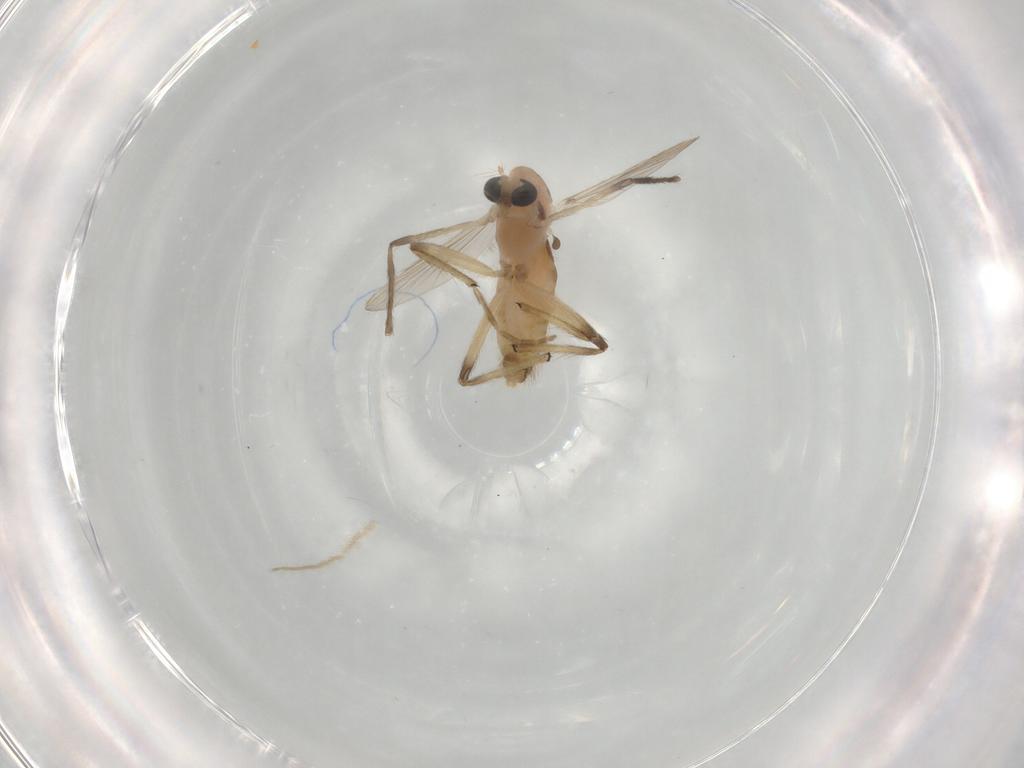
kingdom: Animalia
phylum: Arthropoda
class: Insecta
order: Diptera
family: Chironomidae
